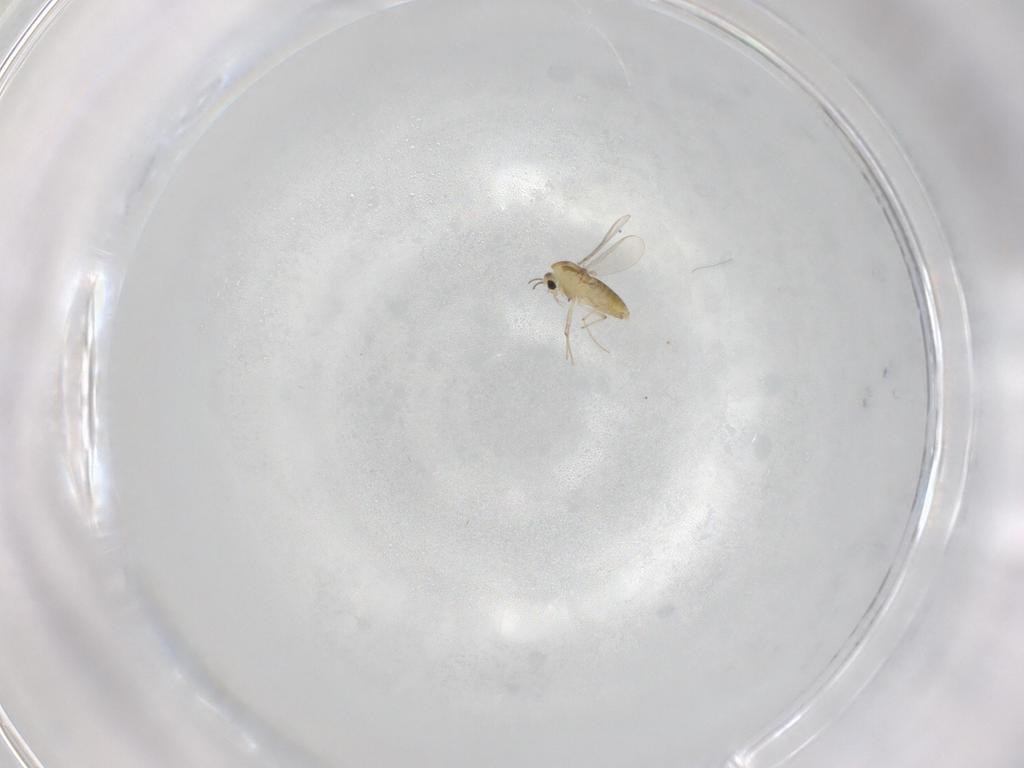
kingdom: Animalia
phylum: Arthropoda
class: Insecta
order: Diptera
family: Chironomidae
